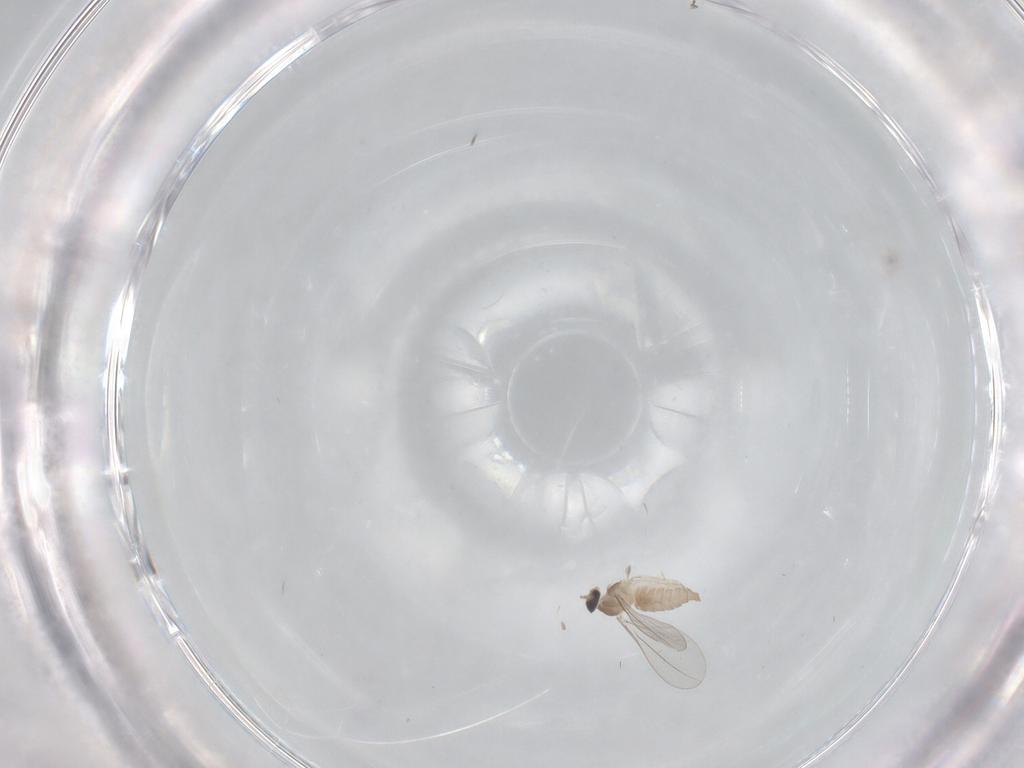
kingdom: Animalia
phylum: Arthropoda
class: Insecta
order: Diptera
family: Cecidomyiidae
